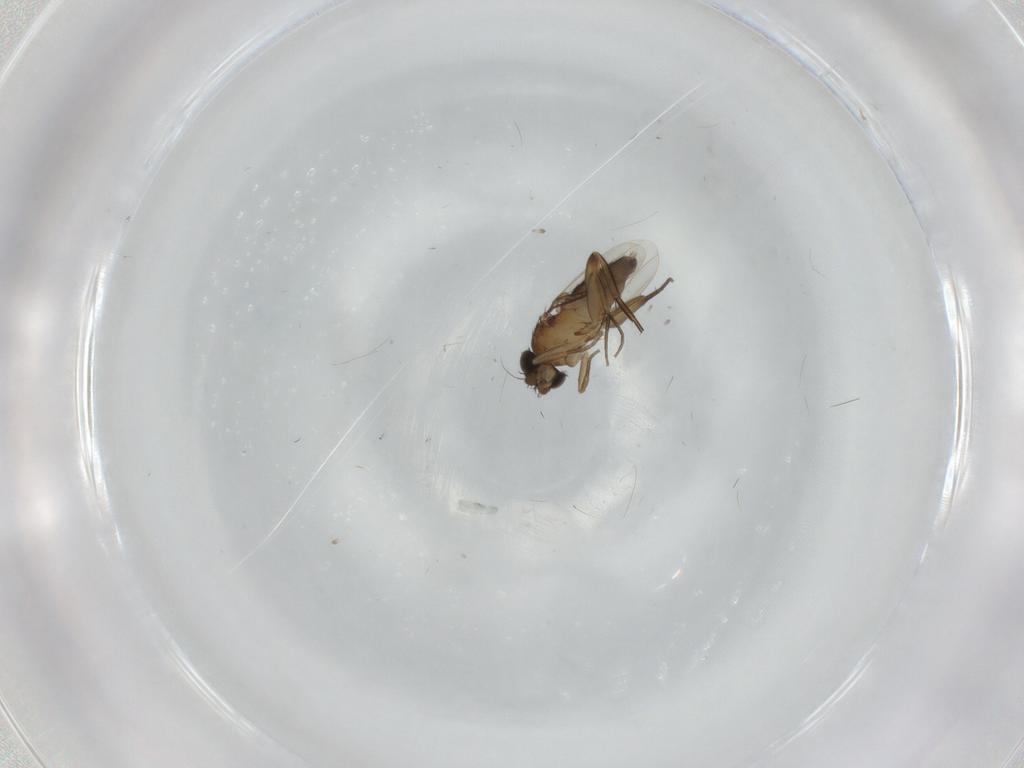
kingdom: Animalia
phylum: Arthropoda
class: Insecta
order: Diptera
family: Phoridae
